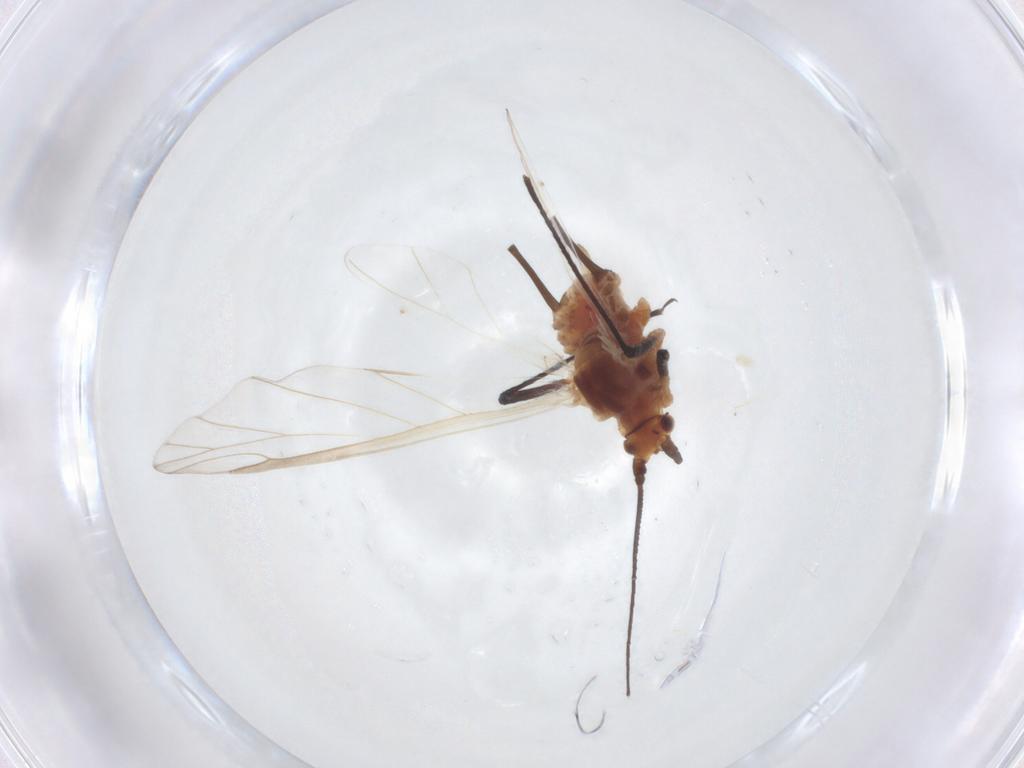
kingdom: Animalia
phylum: Arthropoda
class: Insecta
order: Hemiptera
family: Aphididae
